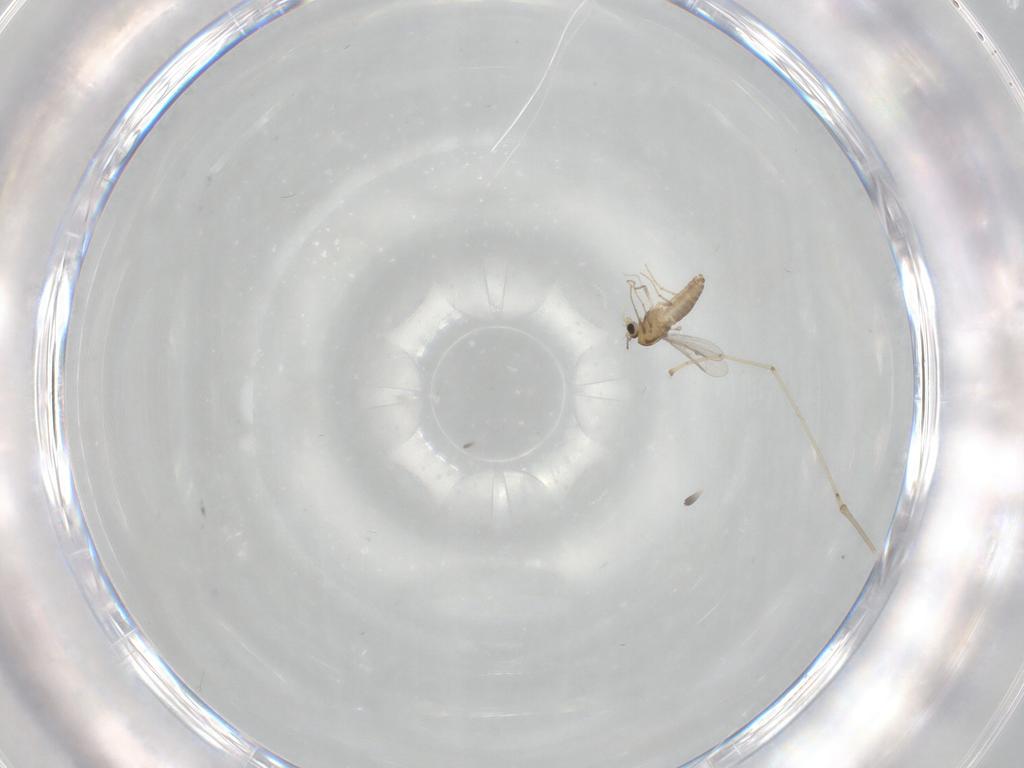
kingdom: Animalia
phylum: Arthropoda
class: Insecta
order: Diptera
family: Chironomidae
